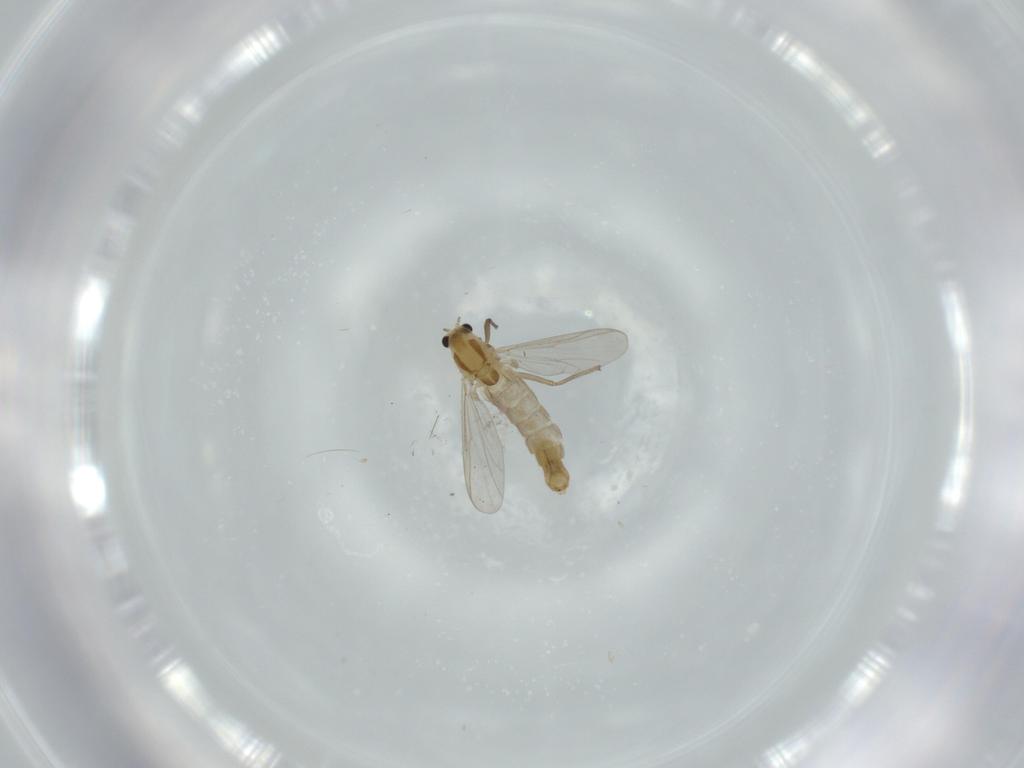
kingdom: Animalia
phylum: Arthropoda
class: Insecta
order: Diptera
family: Chironomidae
